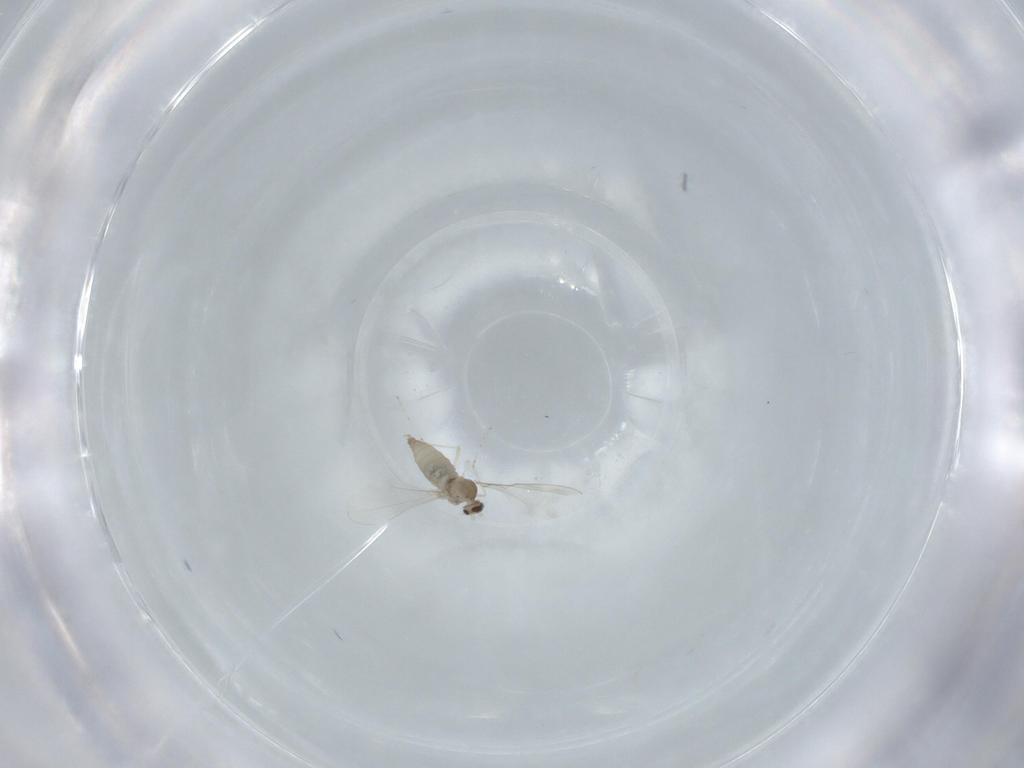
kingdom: Animalia
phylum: Arthropoda
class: Insecta
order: Diptera
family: Cecidomyiidae
